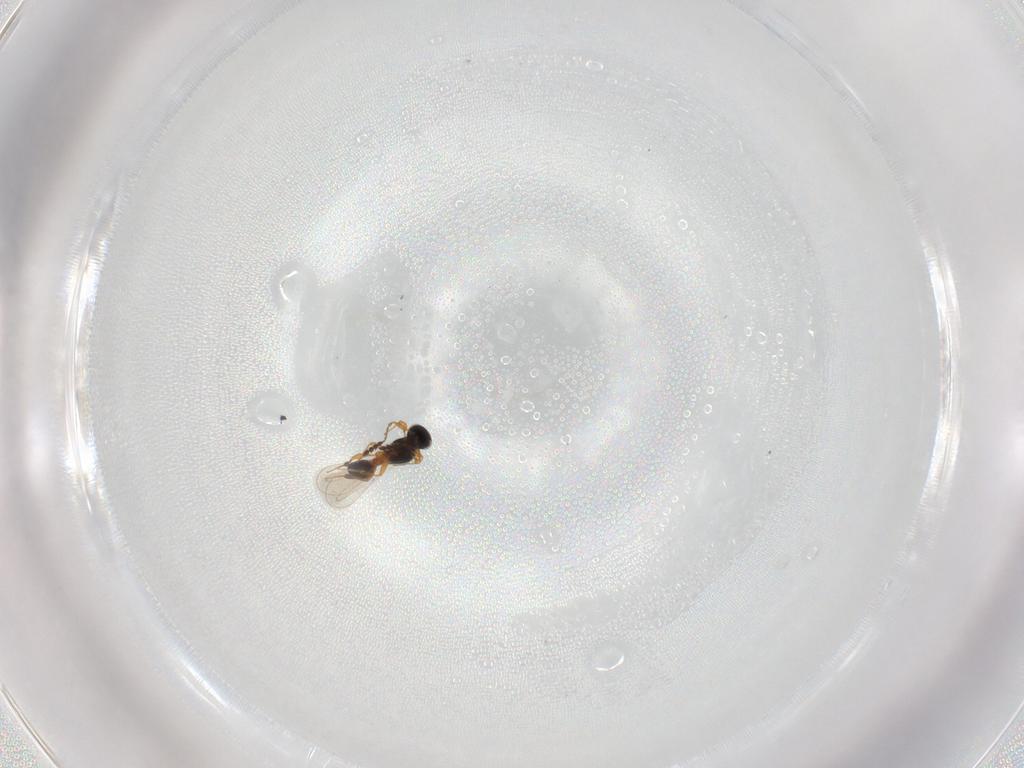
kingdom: Animalia
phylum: Arthropoda
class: Insecta
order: Hymenoptera
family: Platygastridae
